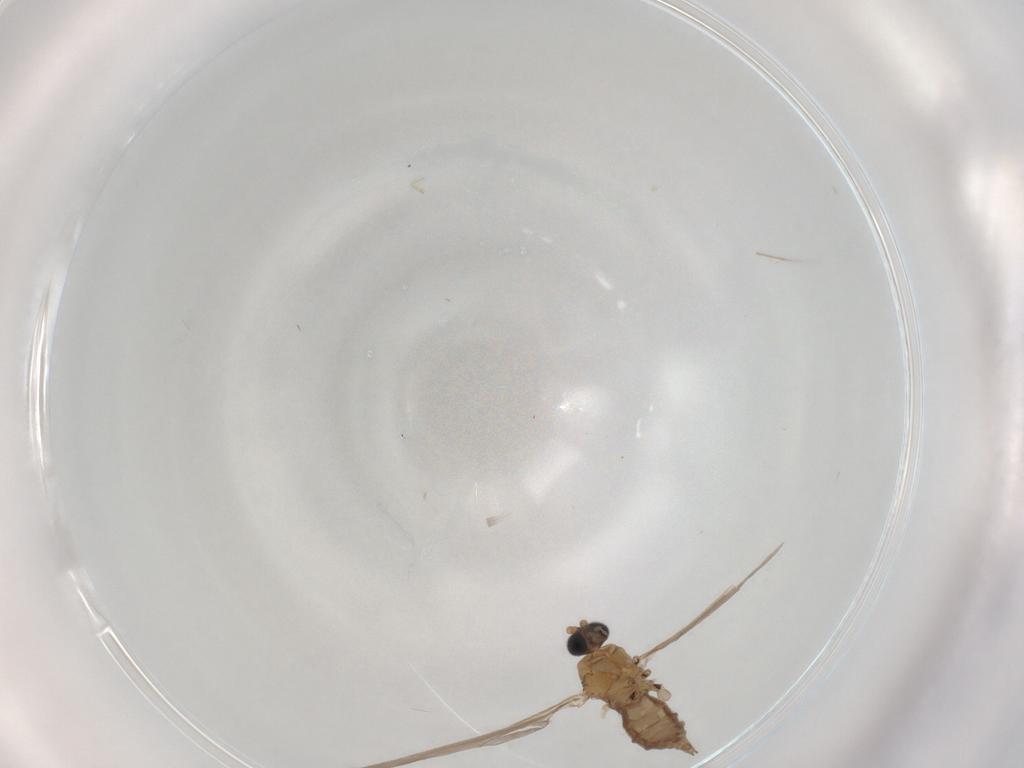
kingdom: Animalia
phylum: Arthropoda
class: Insecta
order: Diptera
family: Sciaridae
